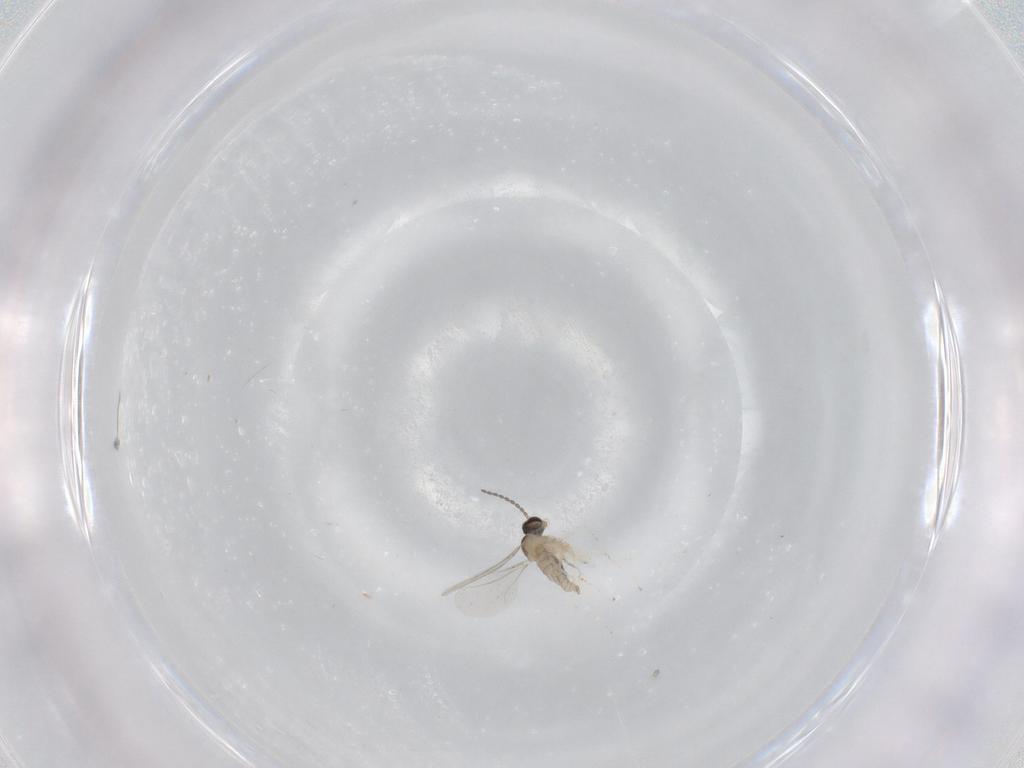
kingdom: Animalia
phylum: Arthropoda
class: Insecta
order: Diptera
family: Cecidomyiidae
